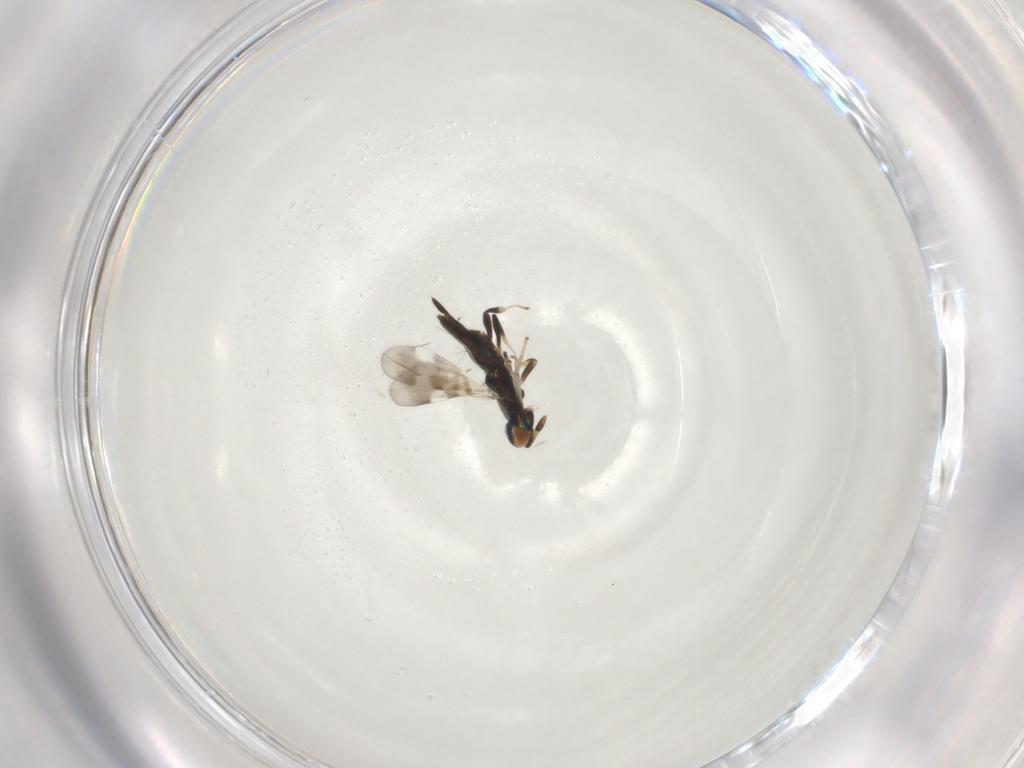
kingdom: Animalia
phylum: Arthropoda
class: Insecta
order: Hymenoptera
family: Encyrtidae
